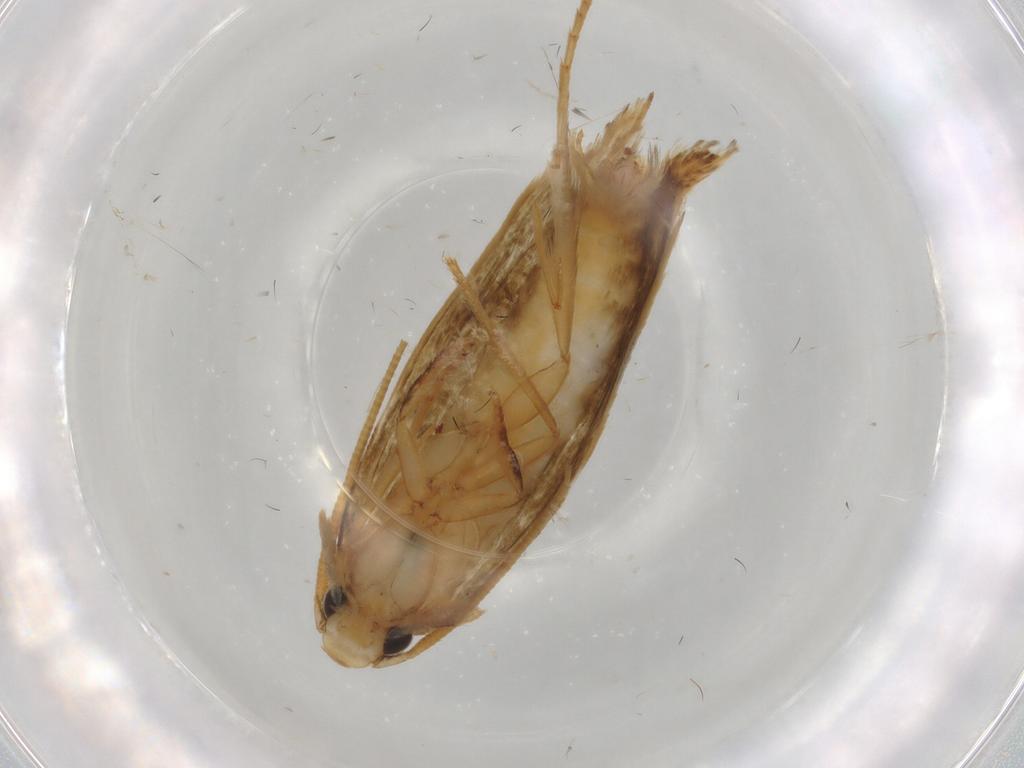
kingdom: Animalia
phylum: Arthropoda
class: Insecta
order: Lepidoptera
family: Tineidae
